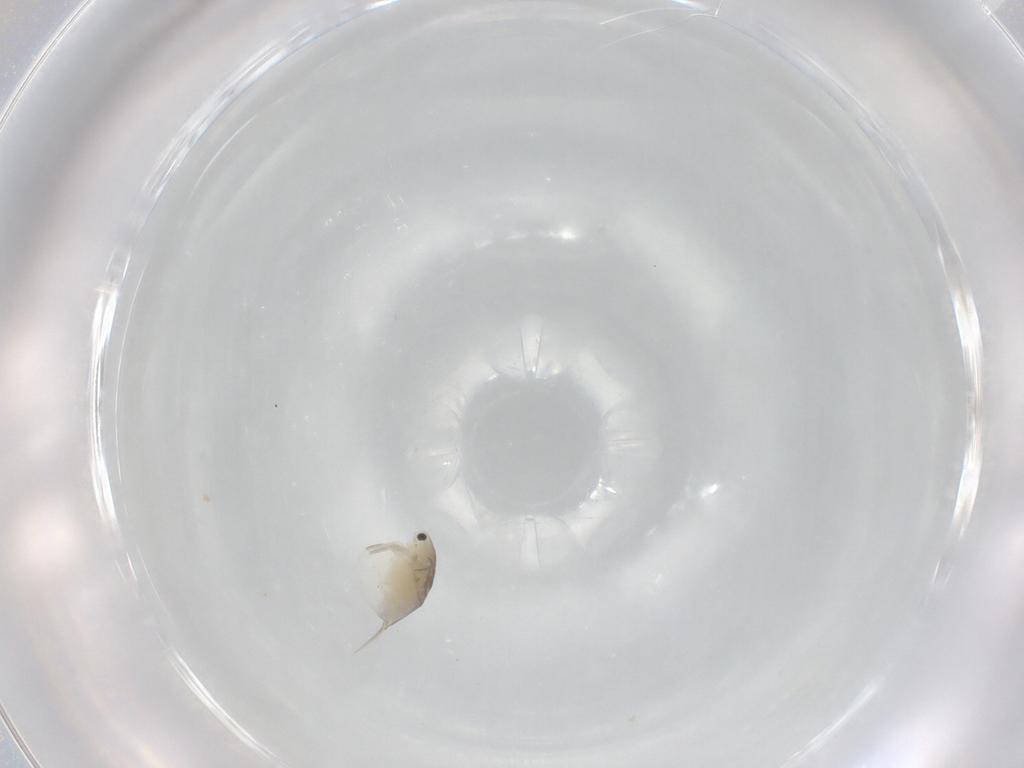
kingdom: Animalia
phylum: Arthropoda
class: Branchiopoda
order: Diplostraca
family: Daphniidae
